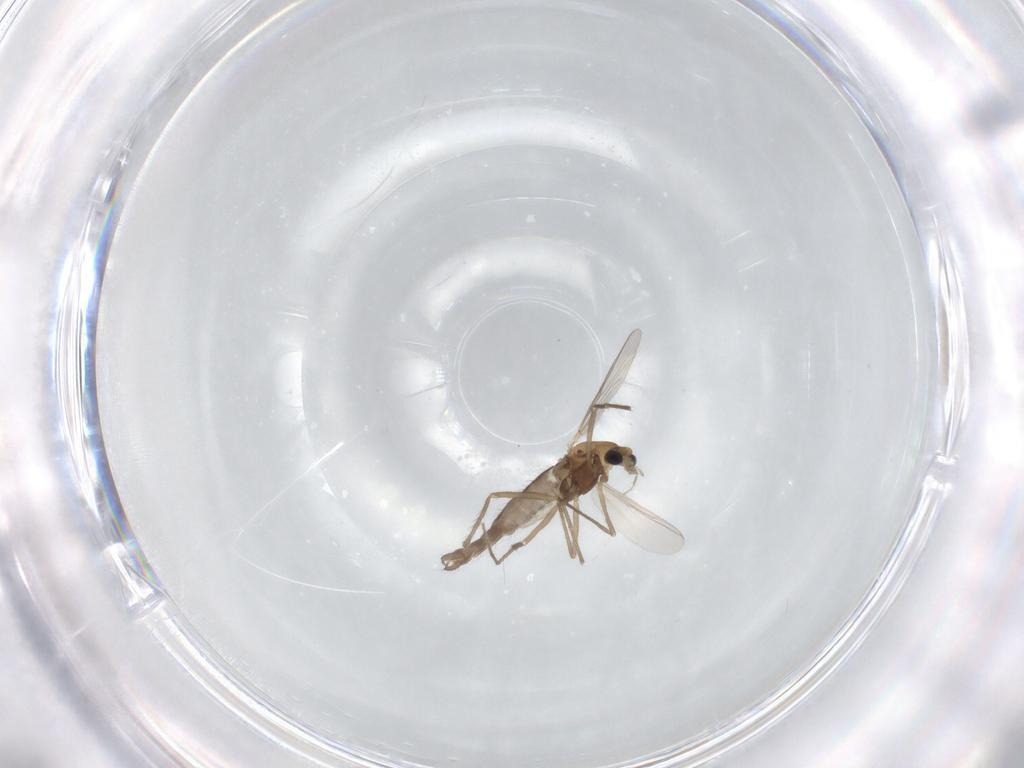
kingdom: Animalia
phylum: Arthropoda
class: Insecta
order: Diptera
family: Chironomidae
